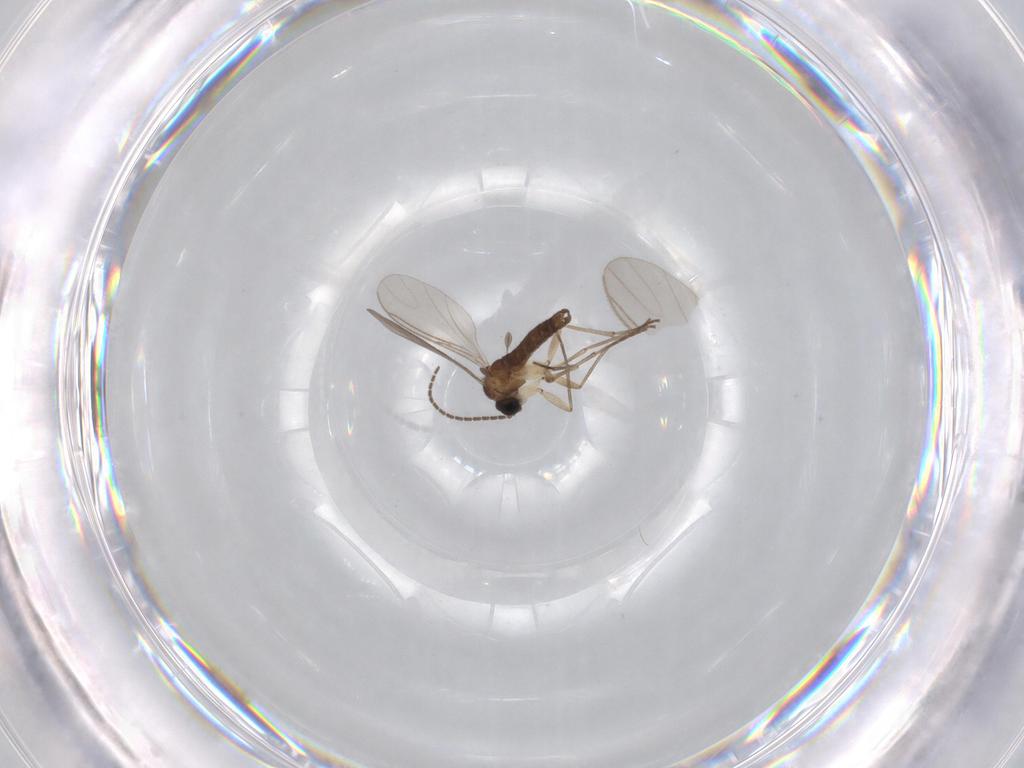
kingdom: Animalia
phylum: Arthropoda
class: Insecta
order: Diptera
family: Sciaridae
